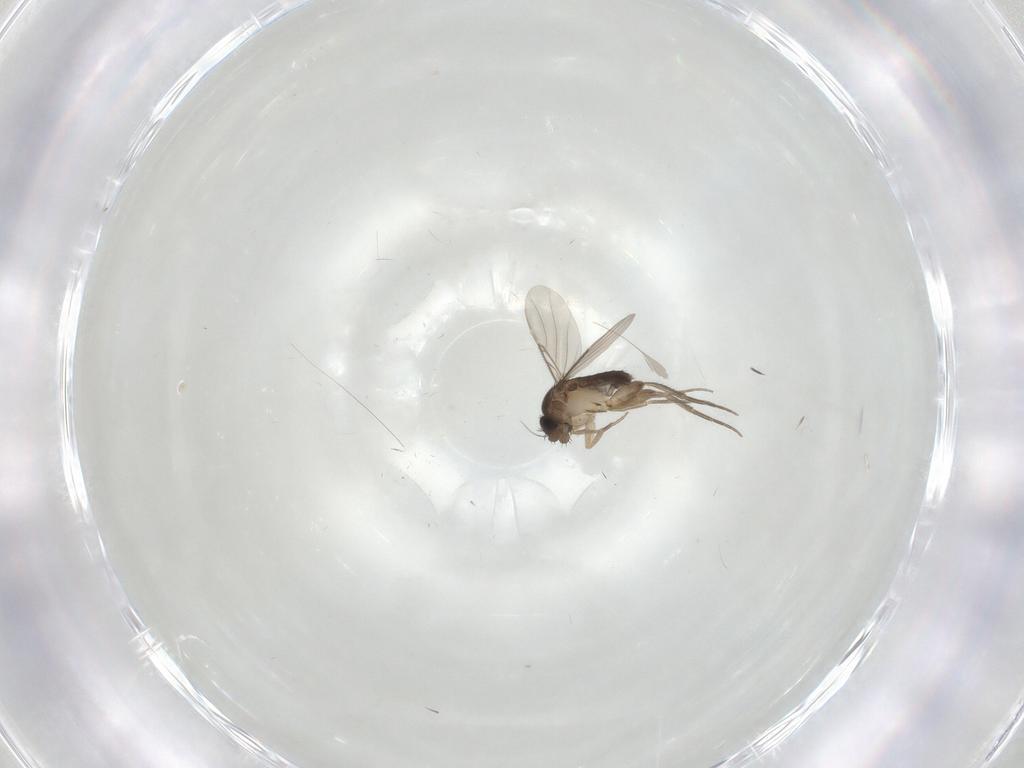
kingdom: Animalia
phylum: Arthropoda
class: Insecta
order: Diptera
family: Phoridae
